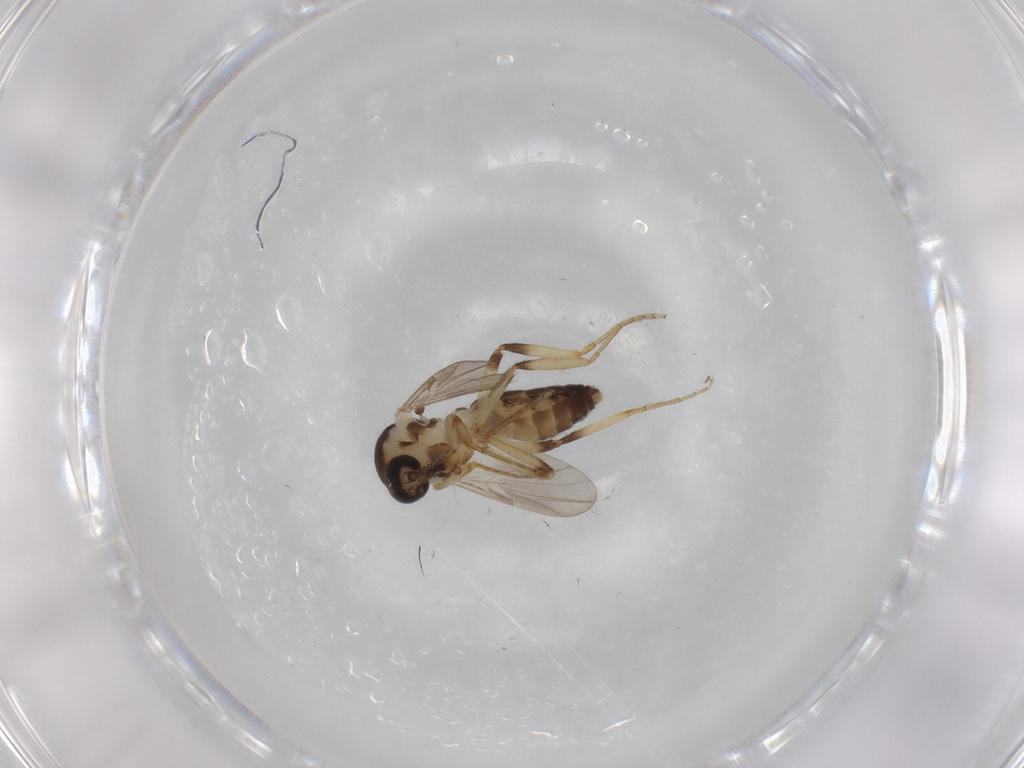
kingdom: Animalia
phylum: Arthropoda
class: Insecta
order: Diptera
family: Ceratopogonidae
